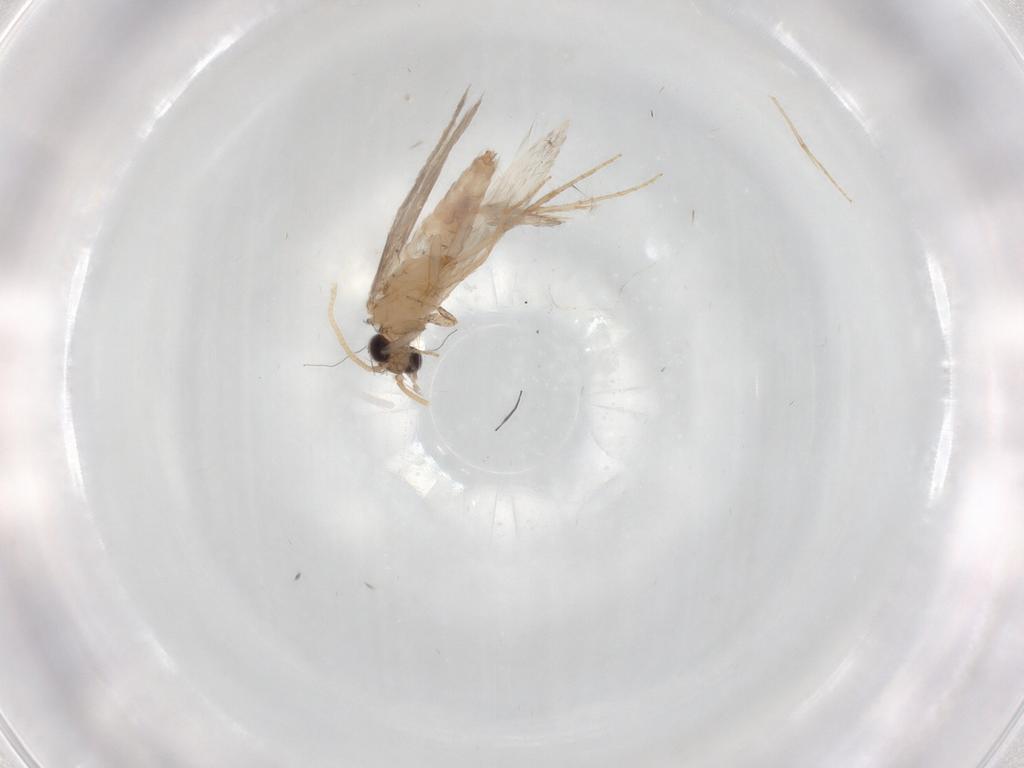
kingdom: Animalia
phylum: Arthropoda
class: Insecta
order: Trichoptera
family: Hydroptilidae
